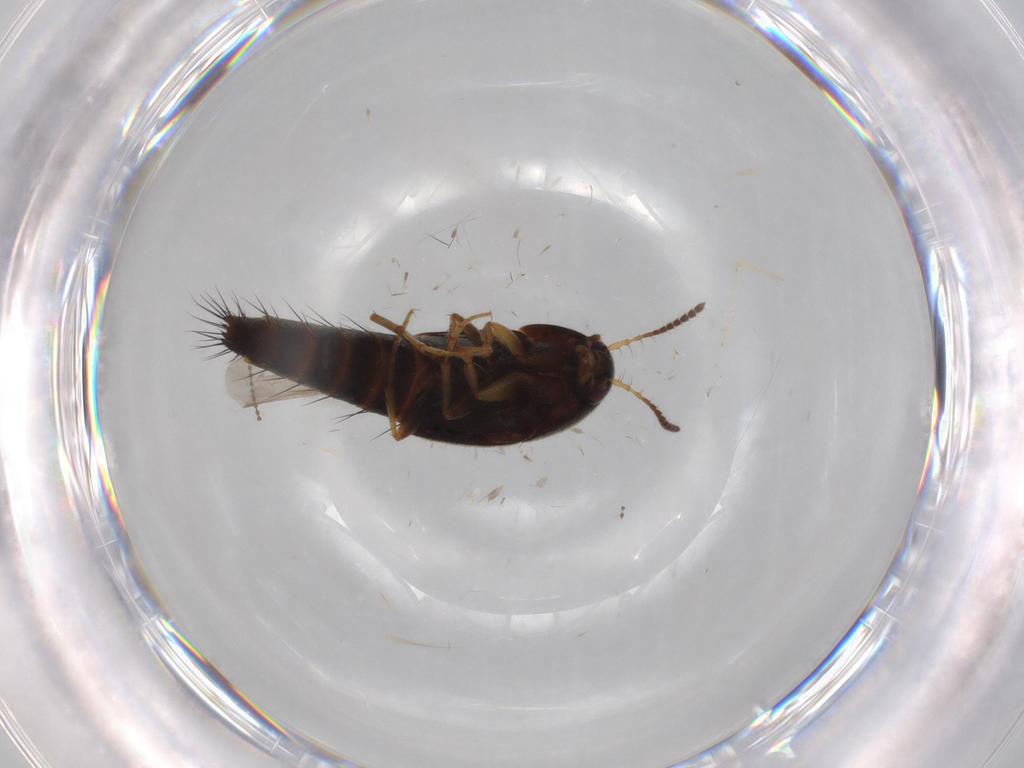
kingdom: Animalia
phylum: Arthropoda
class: Insecta
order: Coleoptera
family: Staphylinidae
